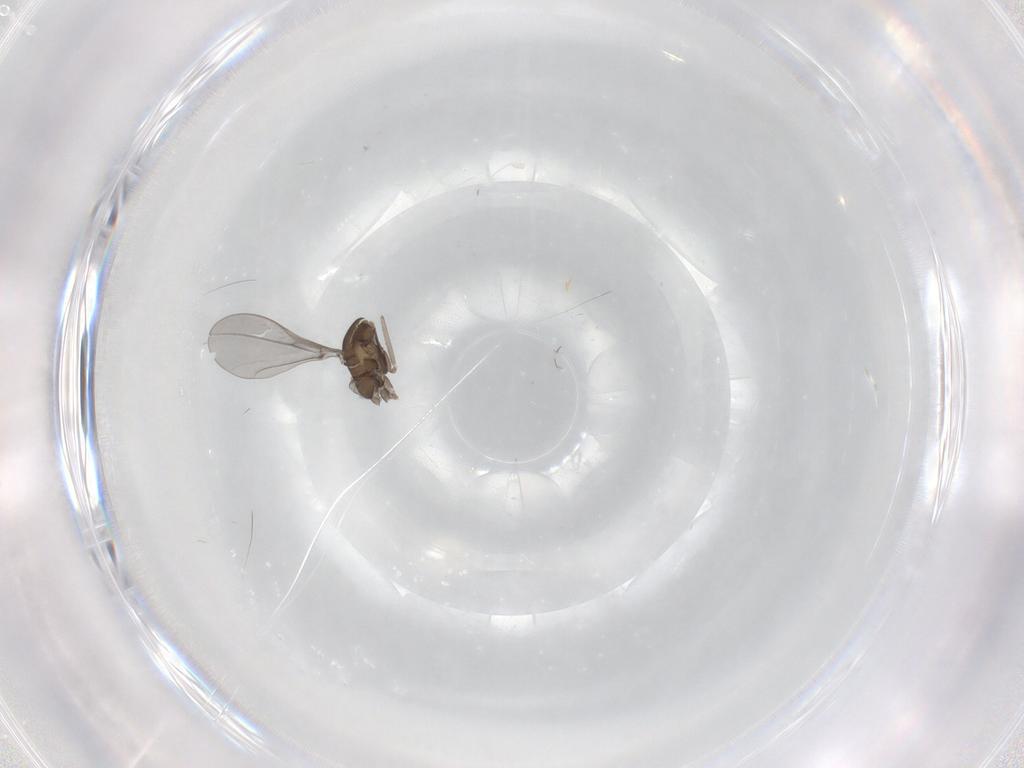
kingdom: Animalia
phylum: Arthropoda
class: Insecta
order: Diptera
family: Cecidomyiidae
